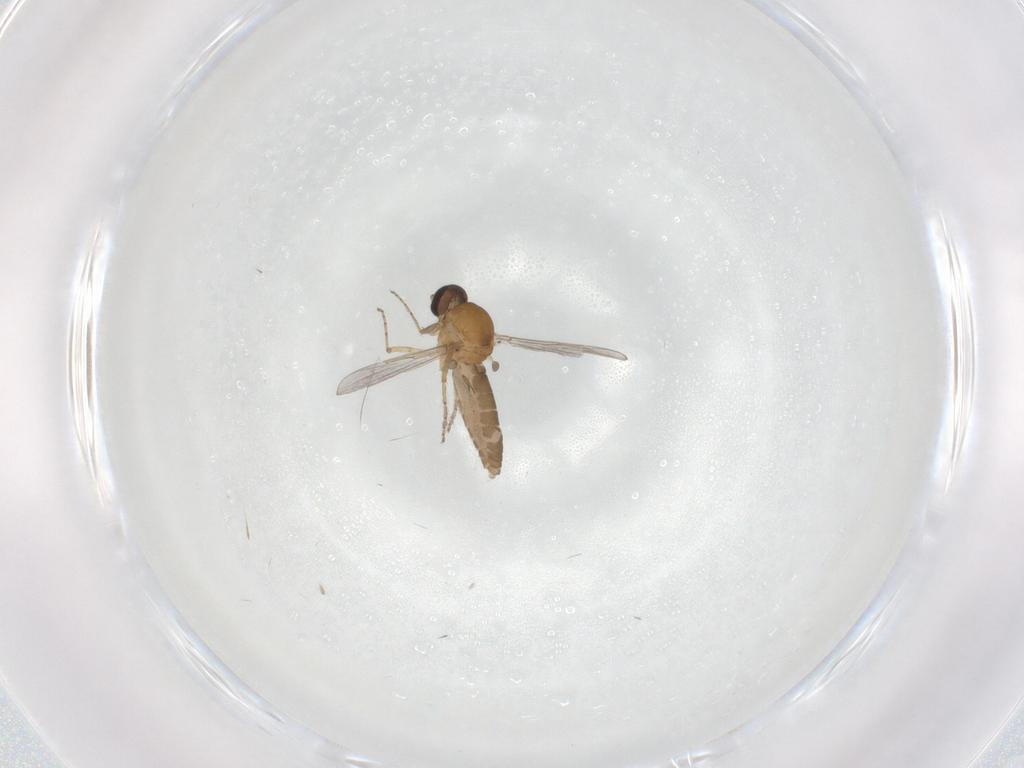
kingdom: Animalia
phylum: Arthropoda
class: Insecta
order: Diptera
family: Ceratopogonidae
